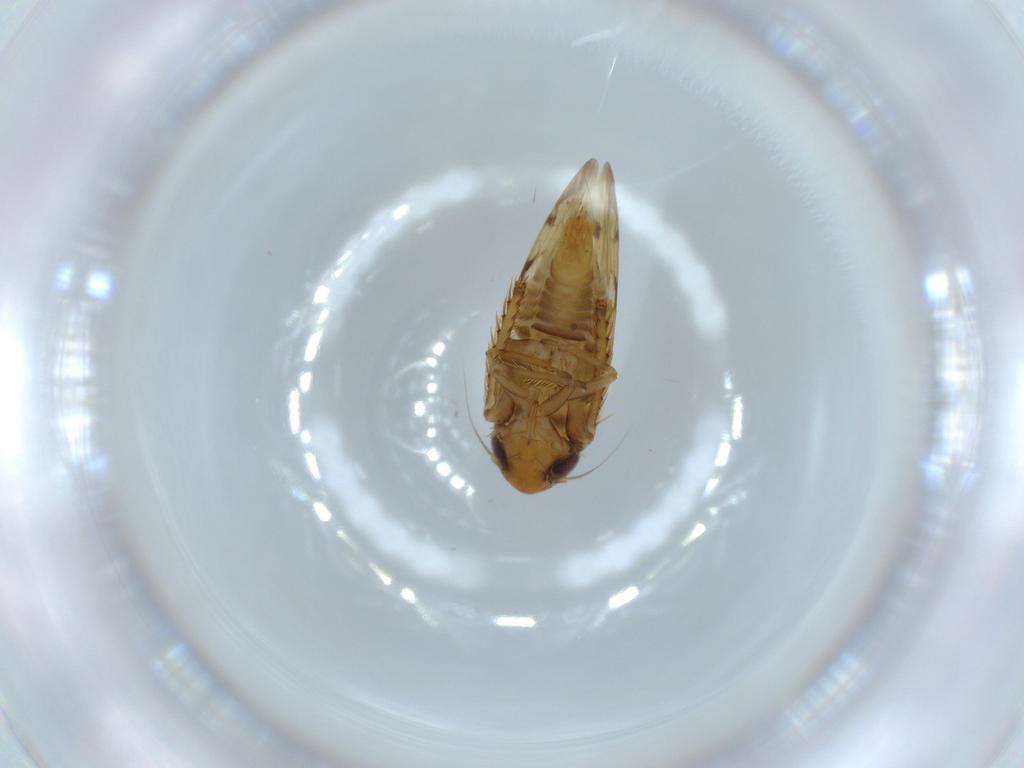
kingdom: Animalia
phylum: Arthropoda
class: Insecta
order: Hemiptera
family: Cicadellidae
